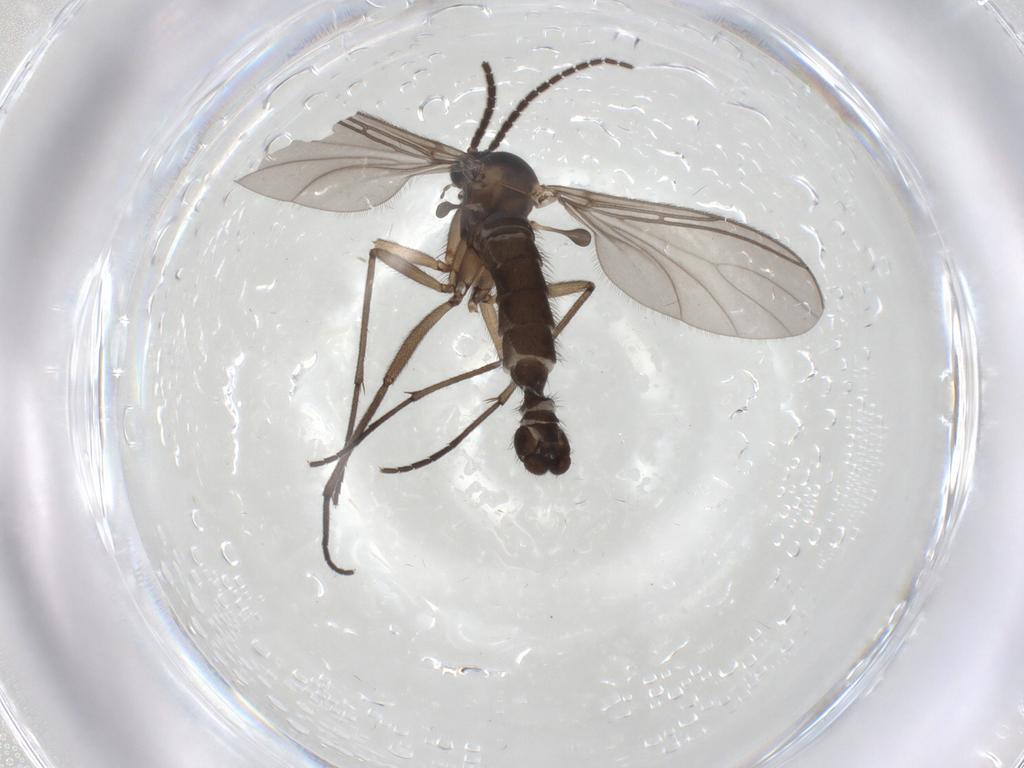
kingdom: Animalia
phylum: Arthropoda
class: Insecta
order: Diptera
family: Sciaridae
